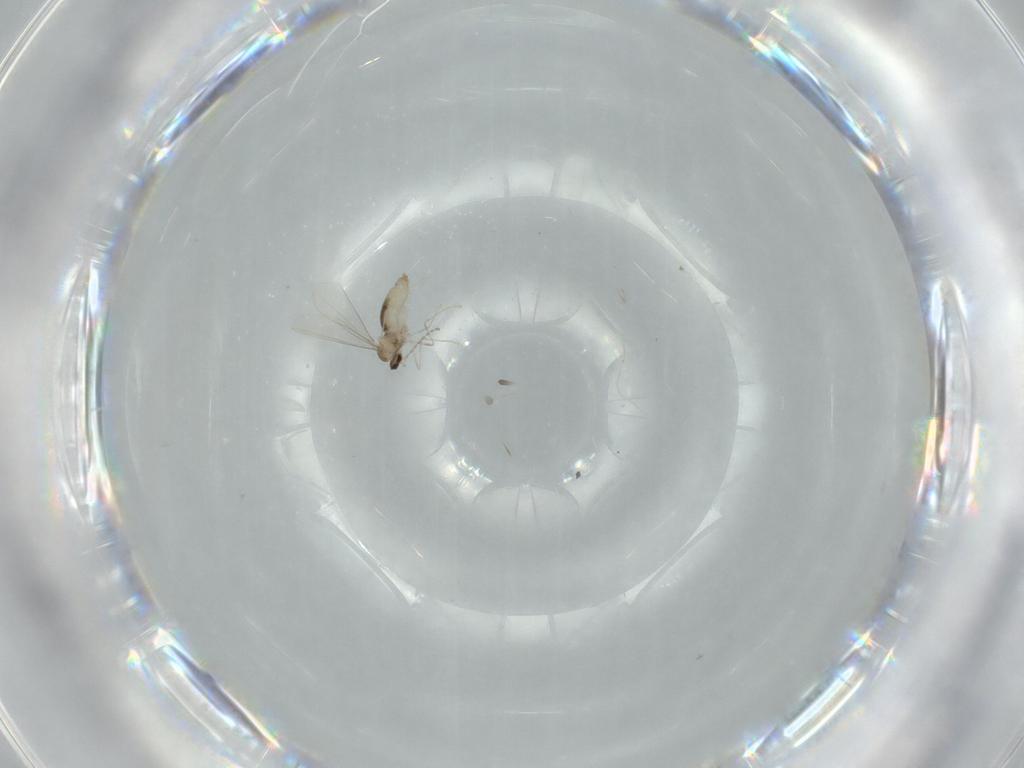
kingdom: Animalia
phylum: Arthropoda
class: Insecta
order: Diptera
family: Cecidomyiidae
